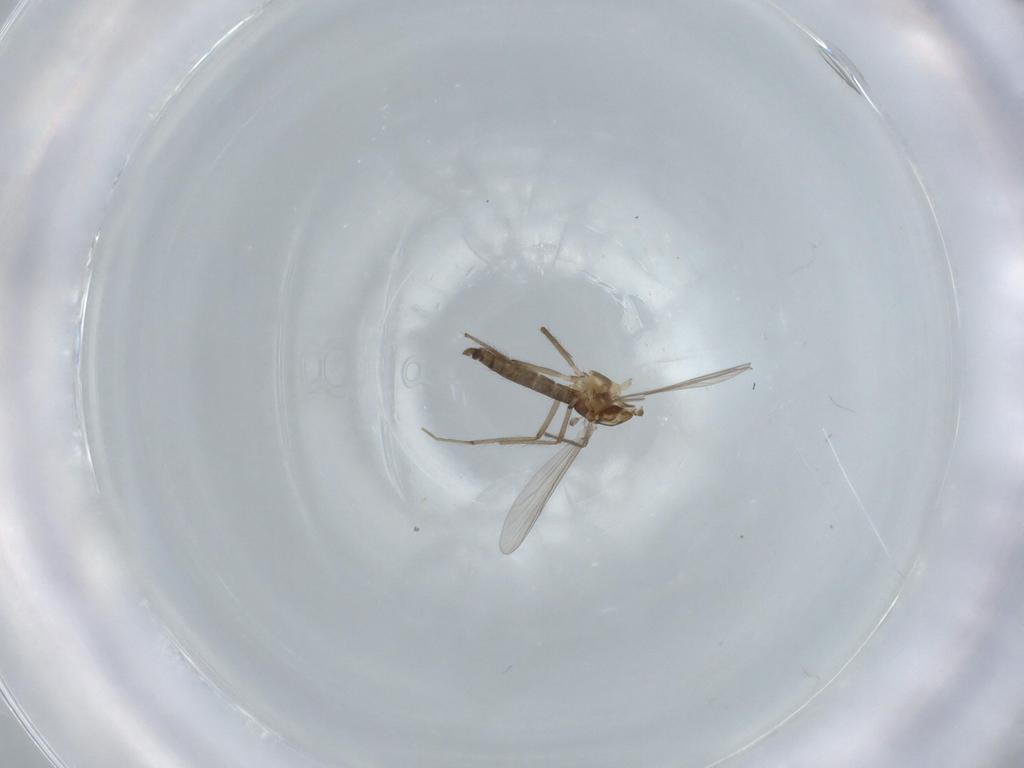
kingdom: Animalia
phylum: Arthropoda
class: Insecta
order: Diptera
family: Chironomidae
